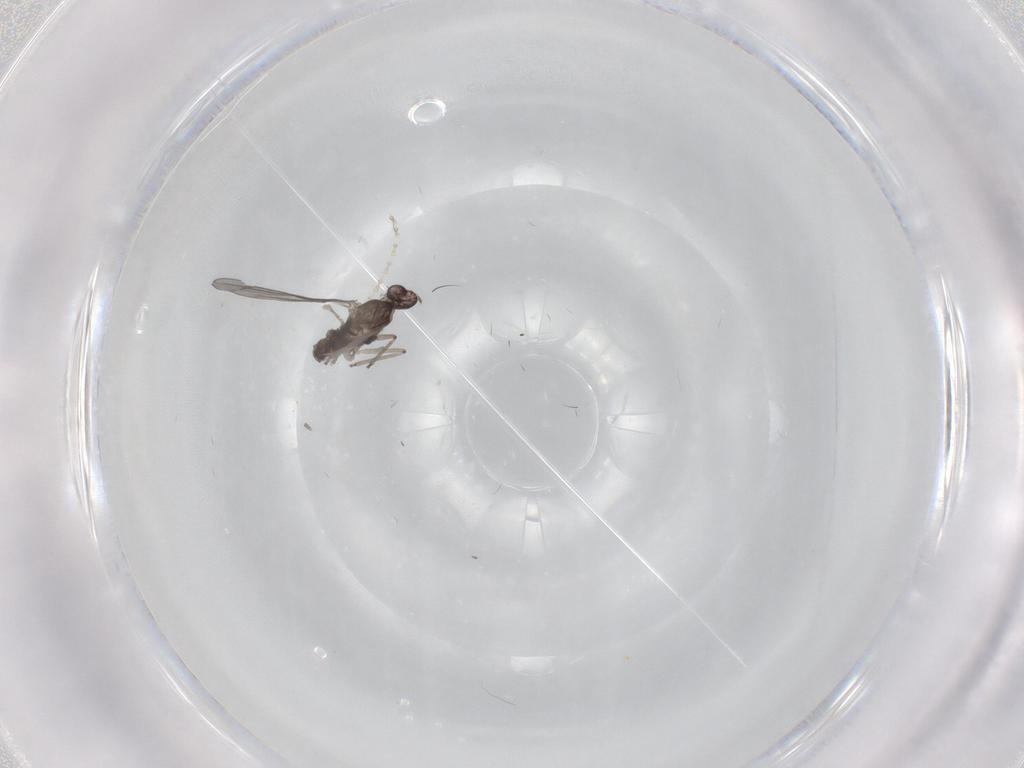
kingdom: Animalia
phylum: Arthropoda
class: Insecta
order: Diptera
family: Cecidomyiidae
